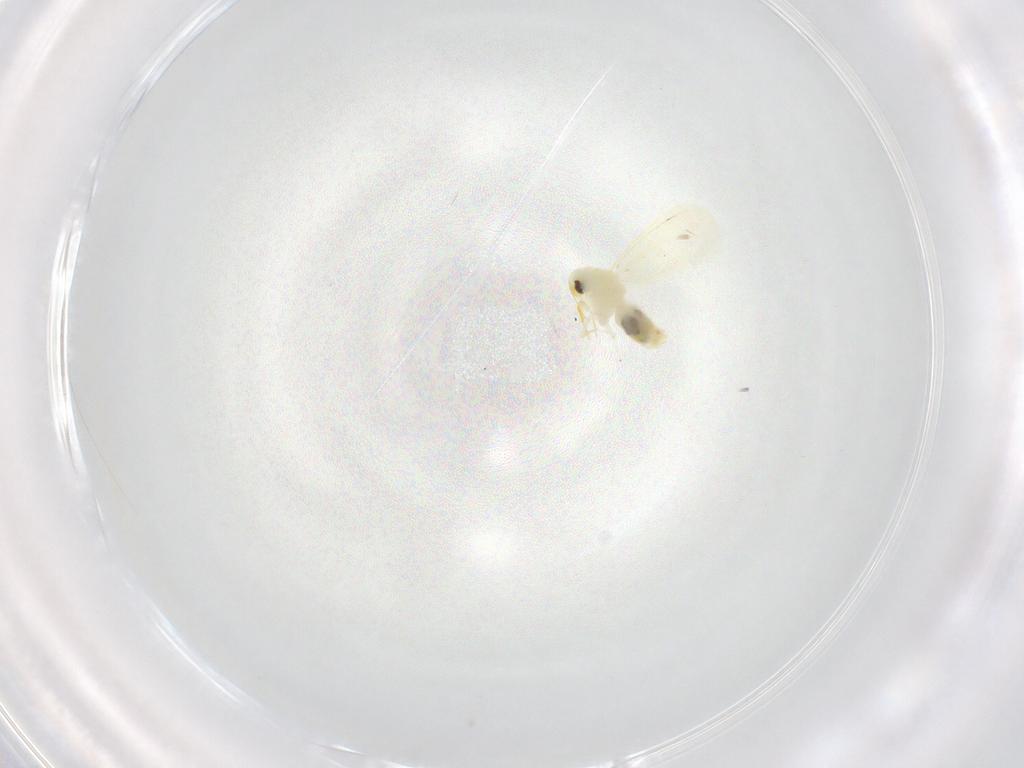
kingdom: Animalia
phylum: Arthropoda
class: Insecta
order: Hemiptera
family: Aleyrodidae
